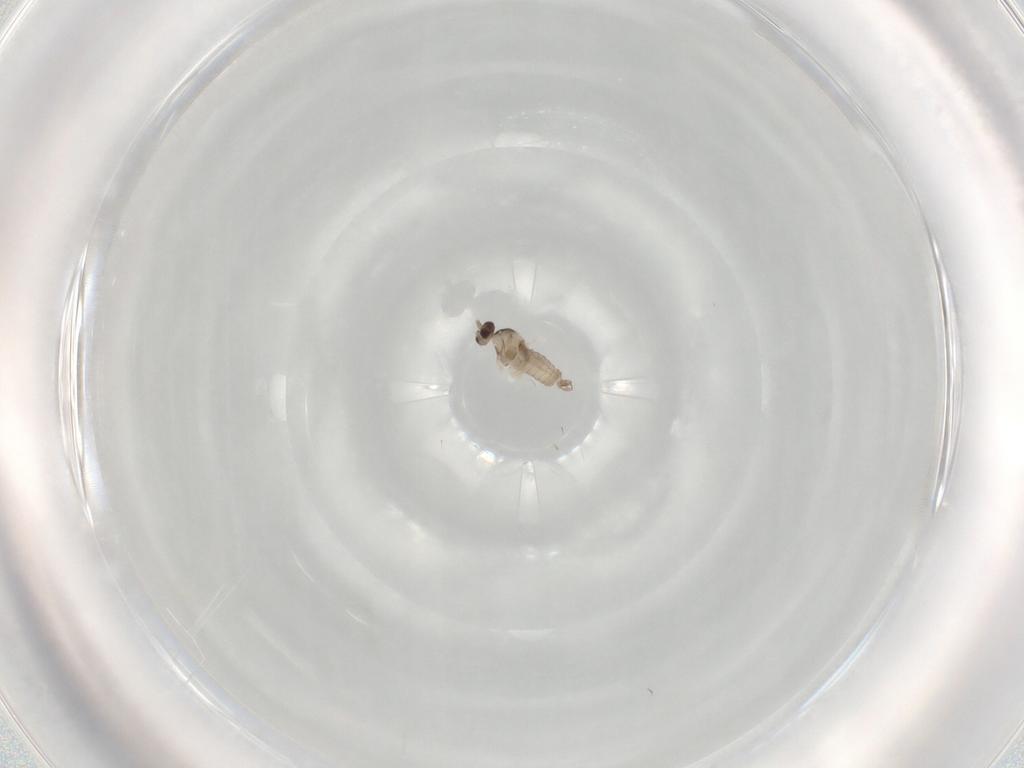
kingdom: Animalia
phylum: Arthropoda
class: Insecta
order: Diptera
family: Cecidomyiidae
